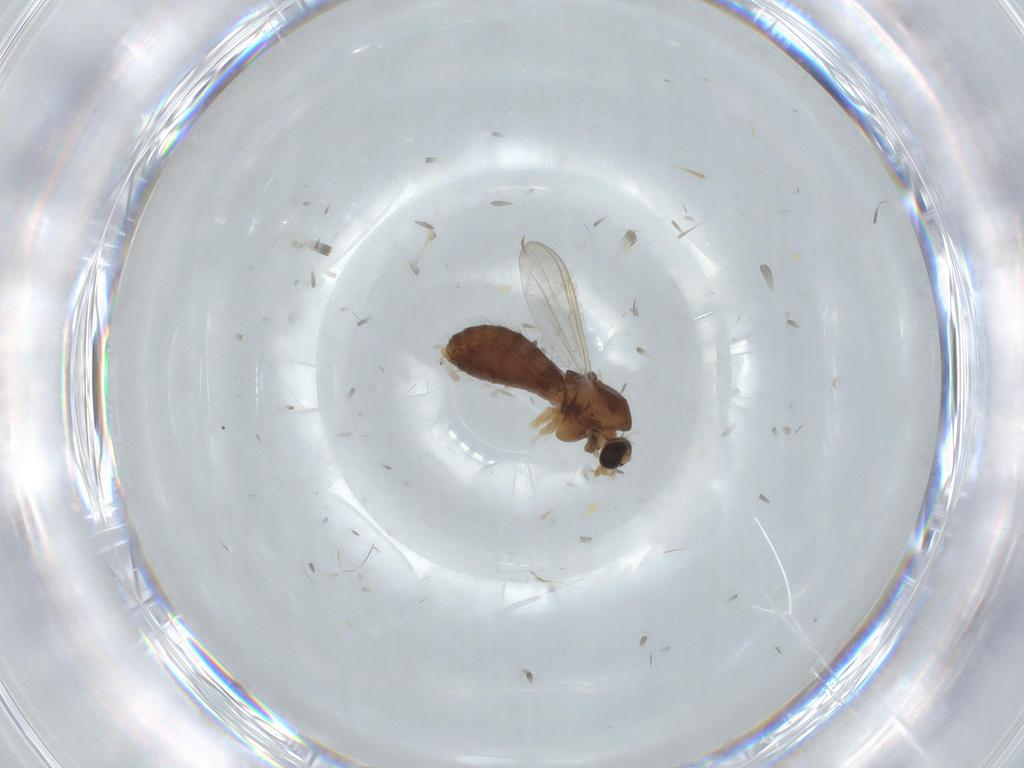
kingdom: Animalia
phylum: Arthropoda
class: Insecta
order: Diptera
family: Chironomidae
